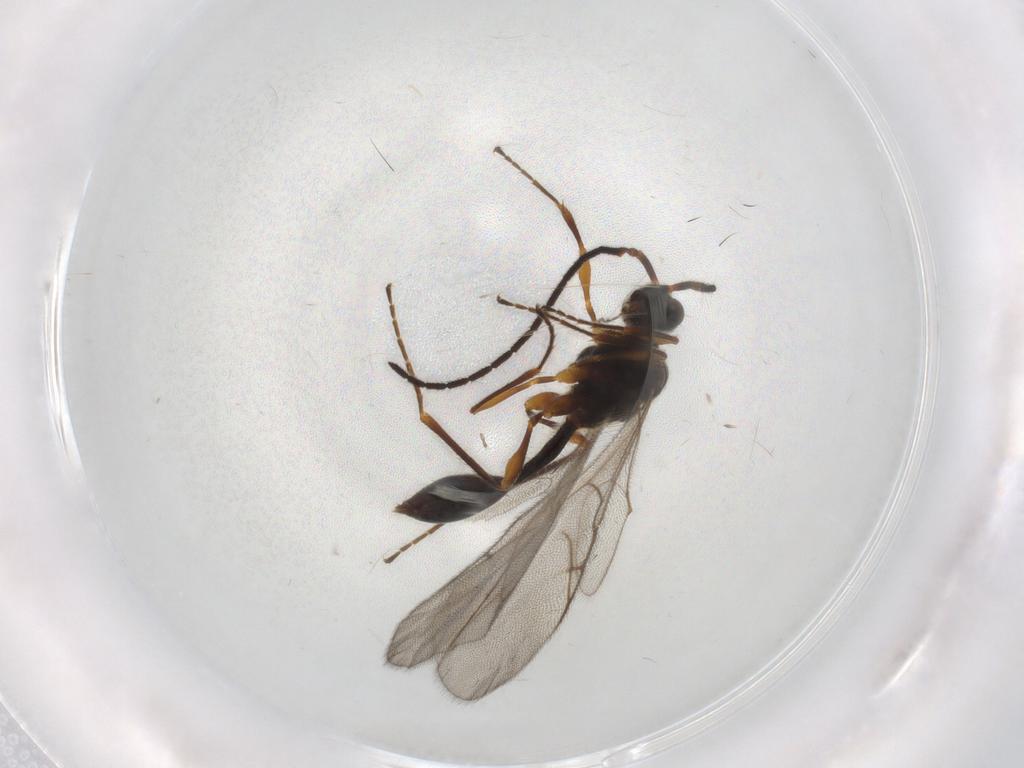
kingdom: Animalia
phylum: Arthropoda
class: Insecta
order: Hymenoptera
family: Diapriidae
